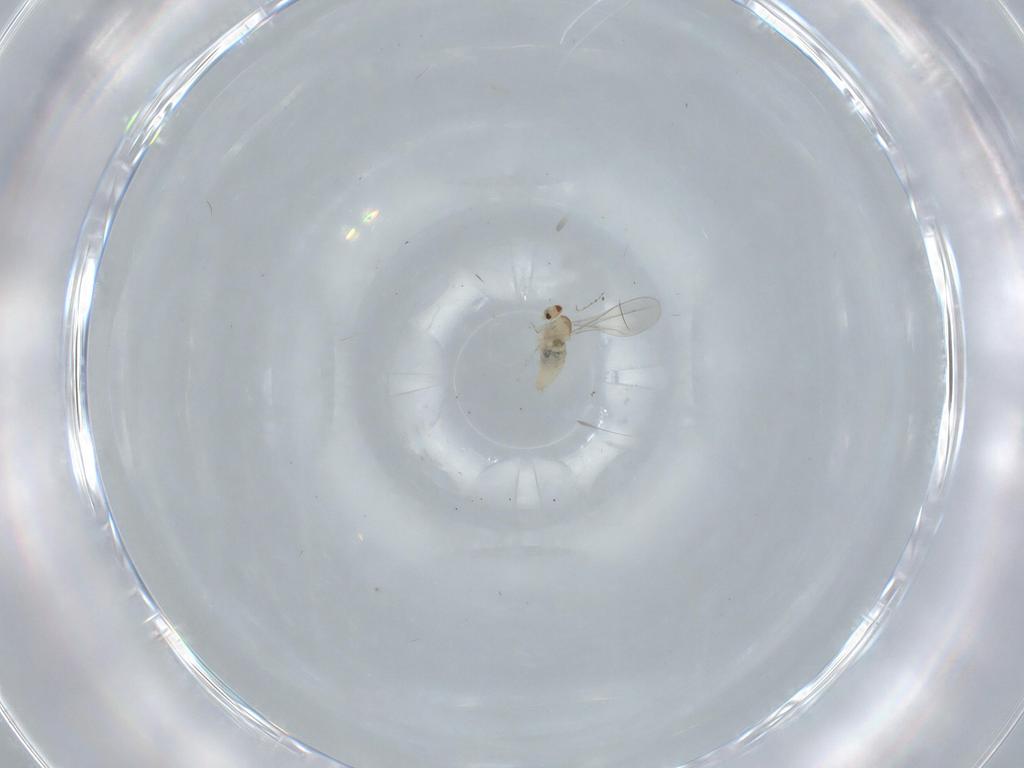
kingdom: Animalia
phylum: Arthropoda
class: Insecta
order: Diptera
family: Cecidomyiidae
